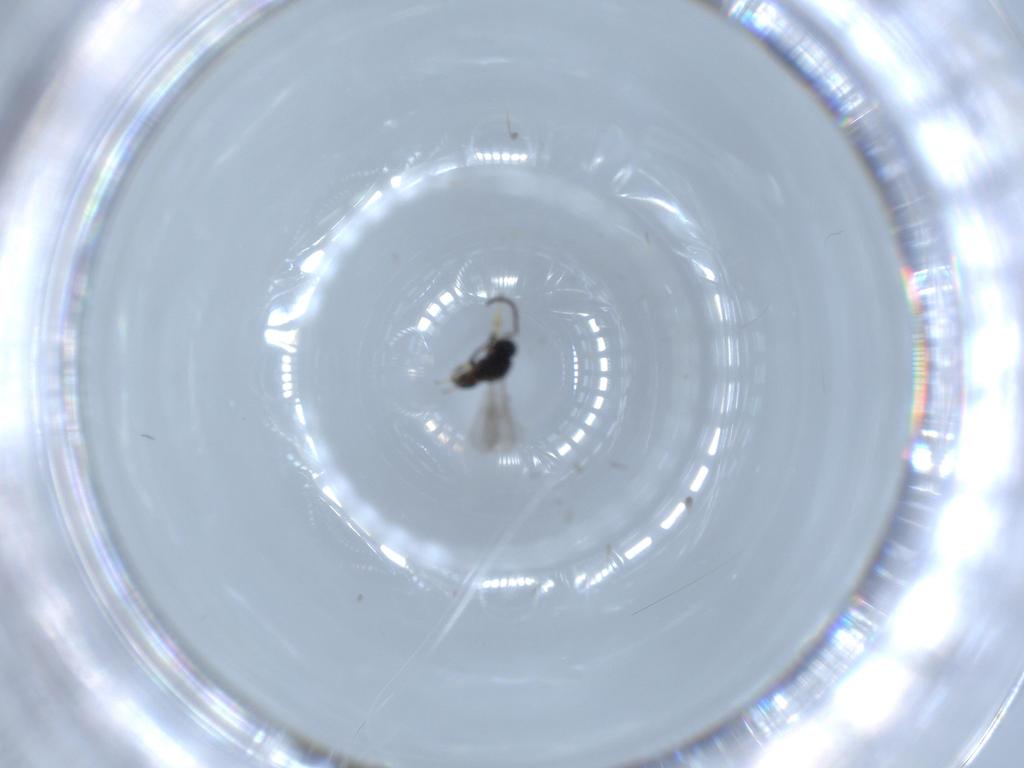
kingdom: Animalia
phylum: Arthropoda
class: Insecta
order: Hymenoptera
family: Scelionidae
